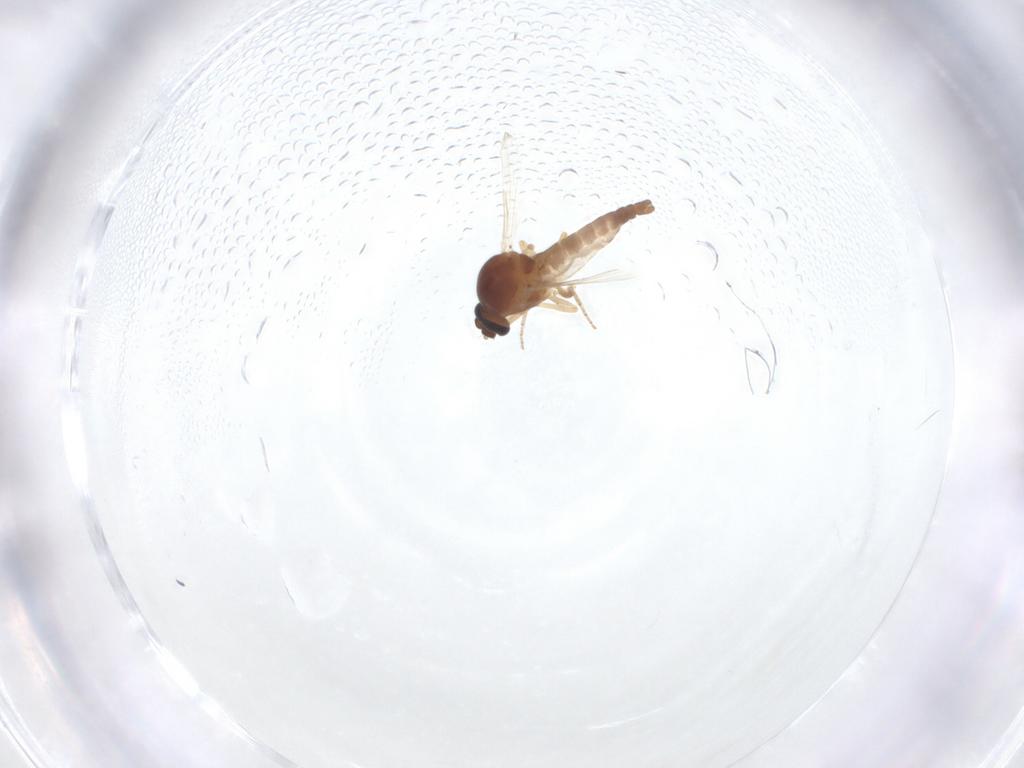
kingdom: Animalia
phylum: Arthropoda
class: Insecta
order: Diptera
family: Ceratopogonidae
